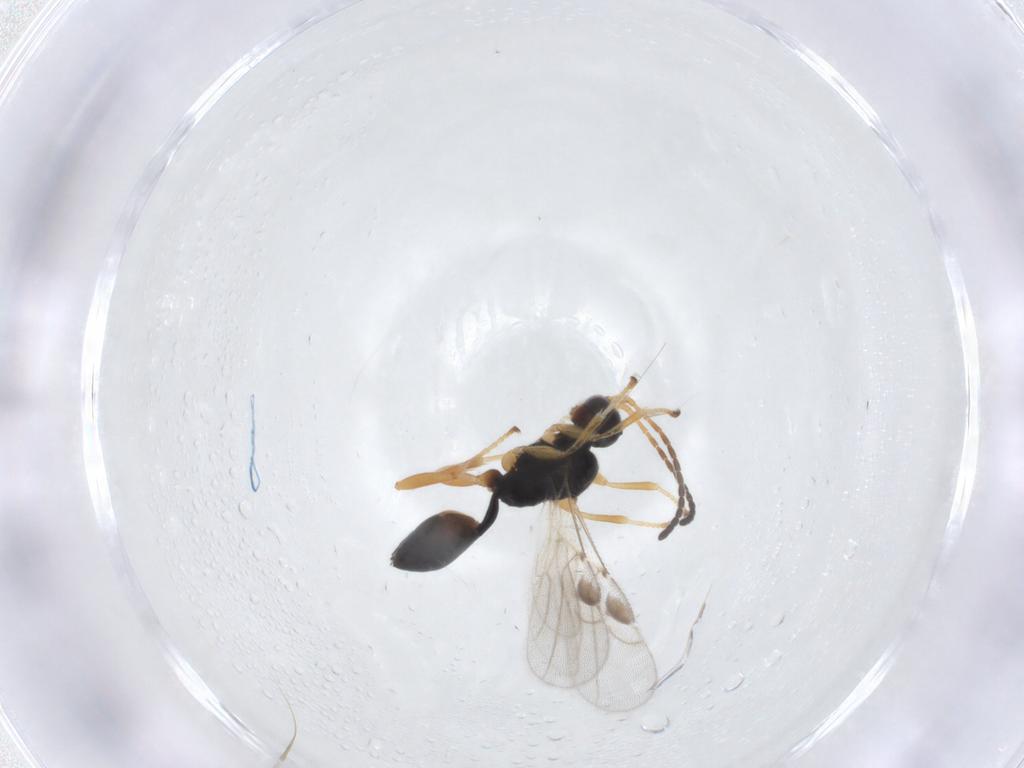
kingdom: Animalia
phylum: Arthropoda
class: Insecta
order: Hymenoptera
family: Braconidae
